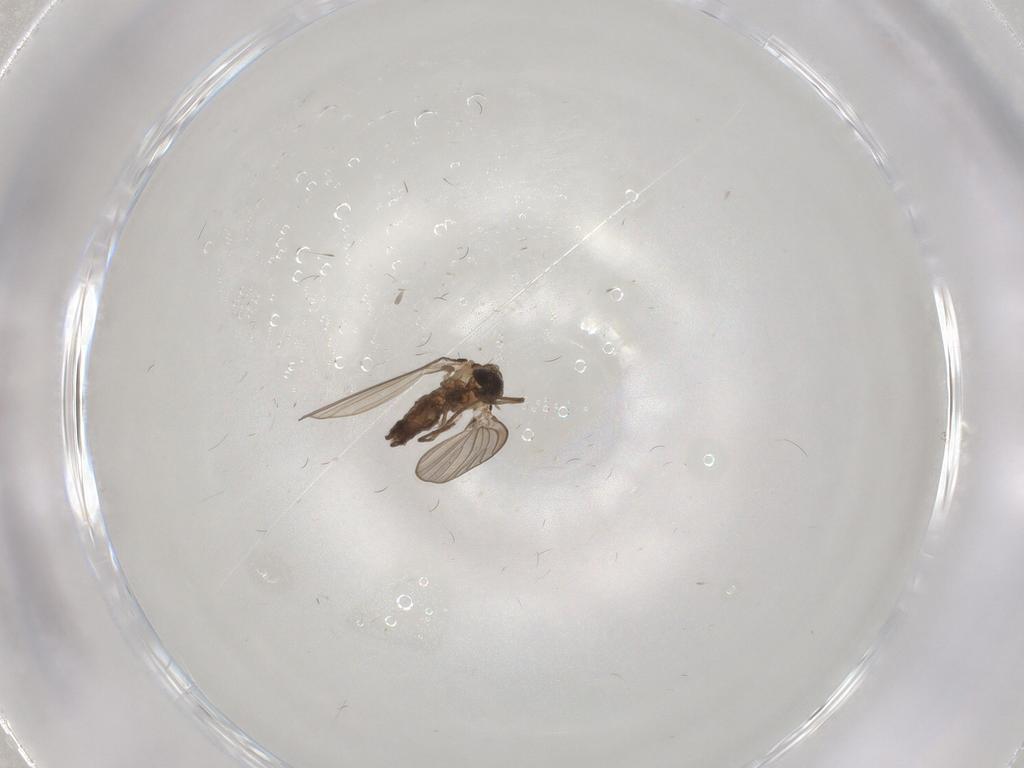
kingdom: Animalia
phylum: Arthropoda
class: Insecta
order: Diptera
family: Psychodidae
